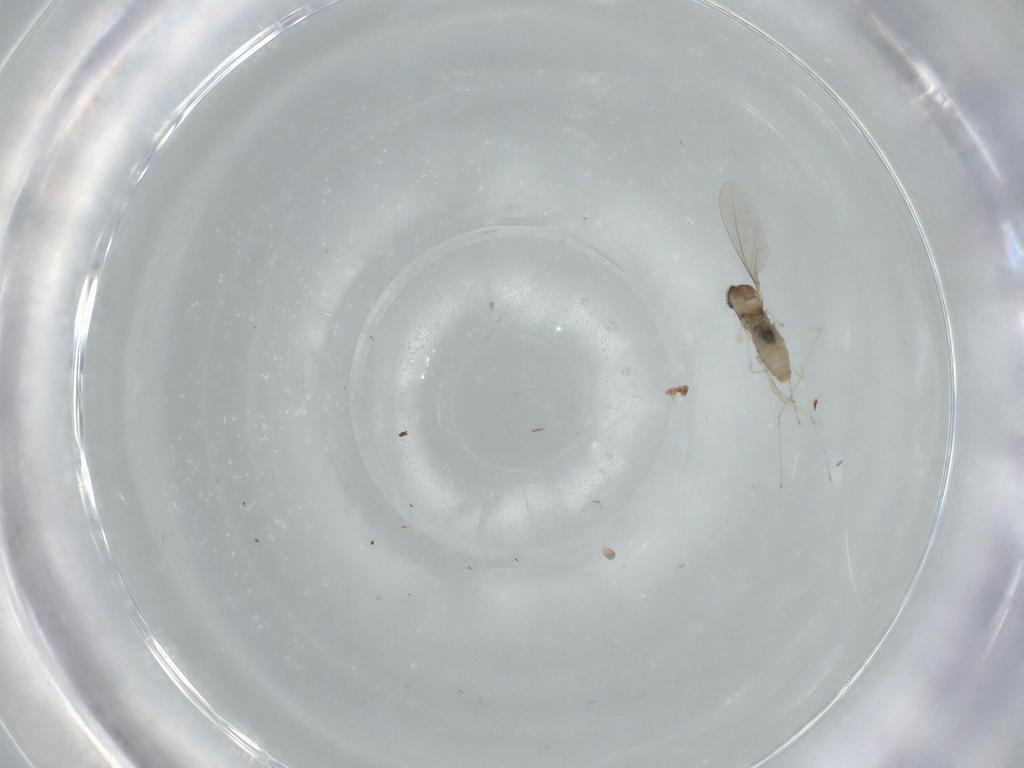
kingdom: Animalia
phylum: Arthropoda
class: Insecta
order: Diptera
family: Cecidomyiidae
